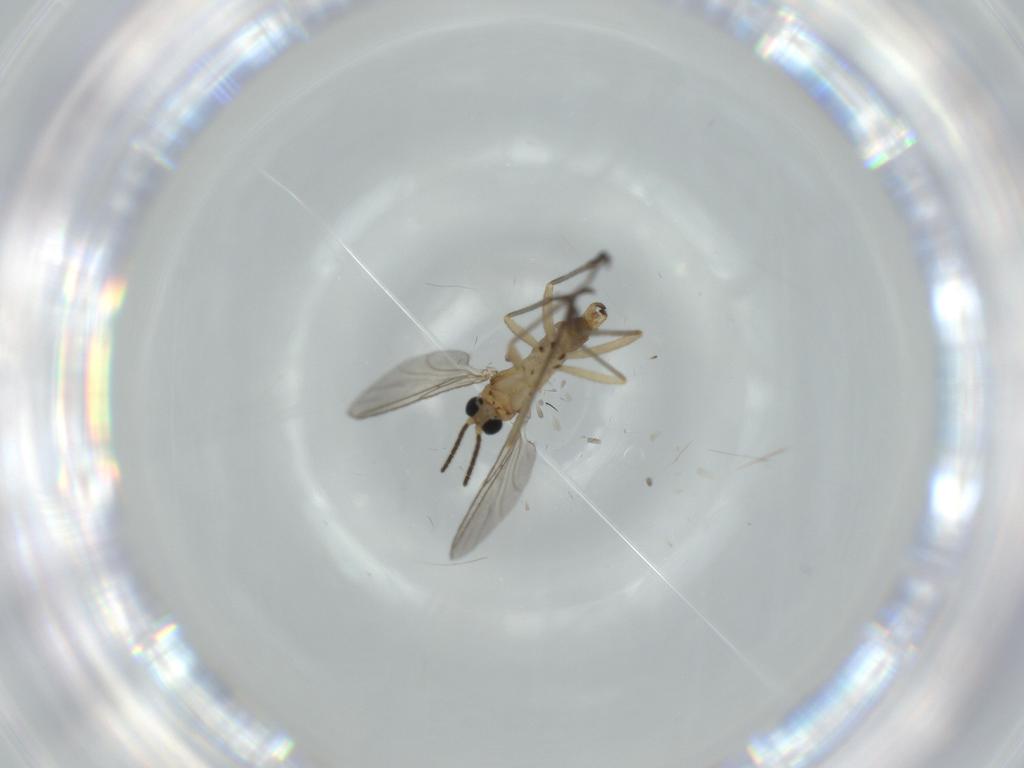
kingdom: Animalia
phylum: Arthropoda
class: Insecta
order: Diptera
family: Sciaridae
